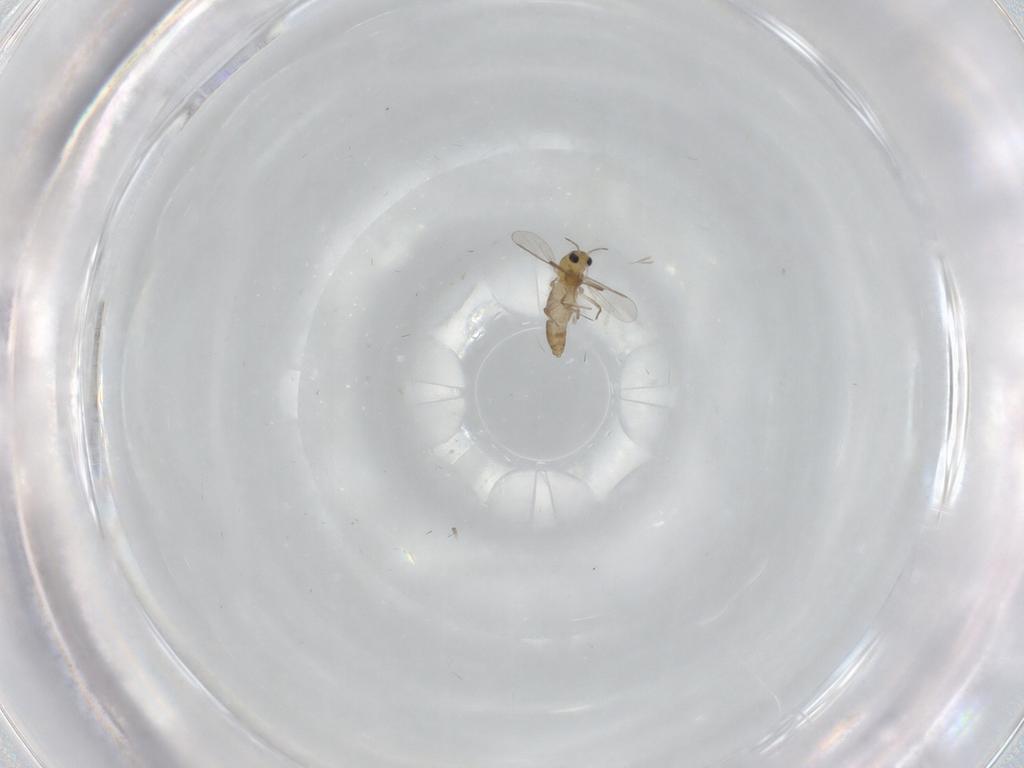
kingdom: Animalia
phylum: Arthropoda
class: Insecta
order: Diptera
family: Chironomidae
